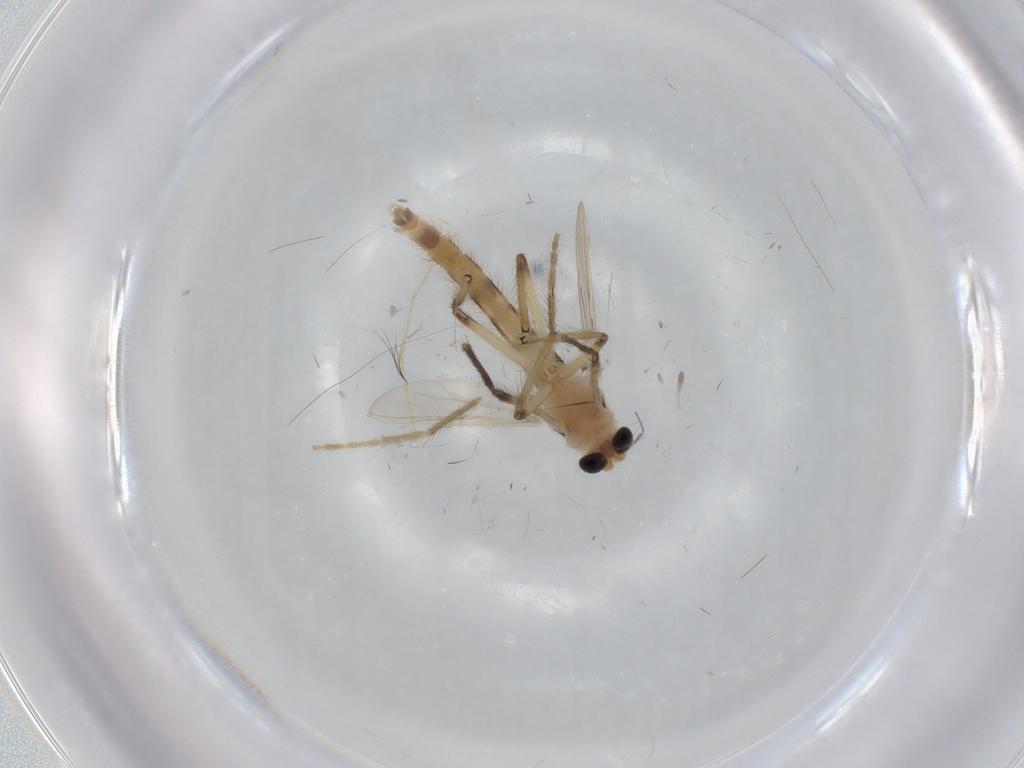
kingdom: Animalia
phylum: Arthropoda
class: Insecta
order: Diptera
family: Chironomidae
